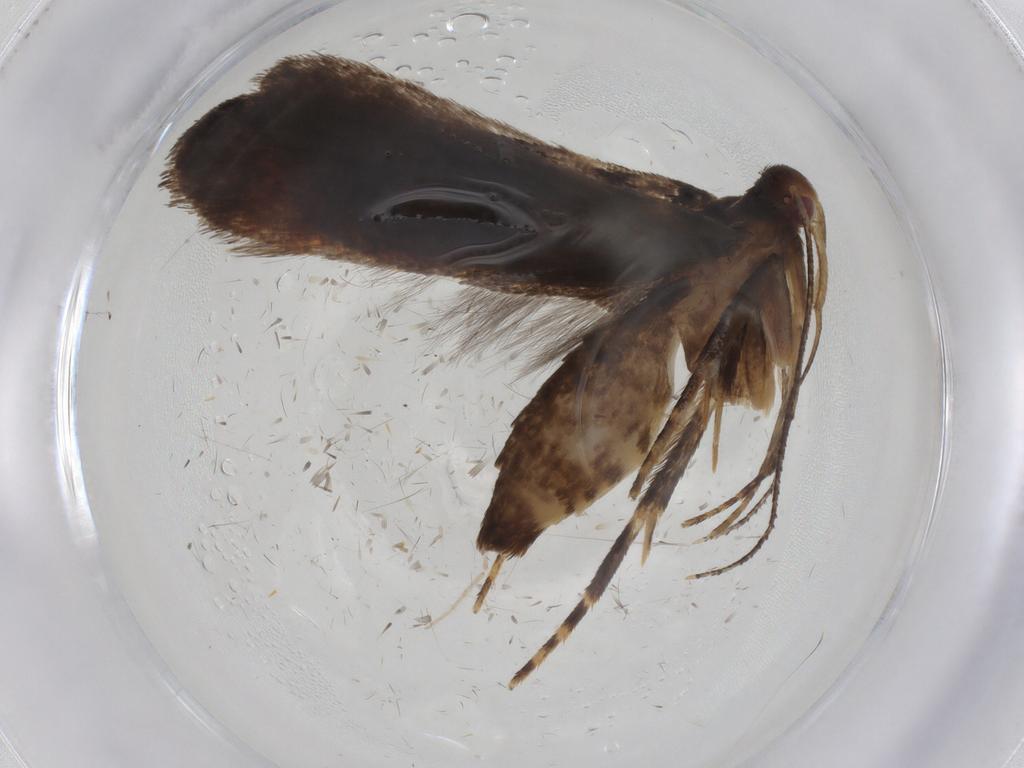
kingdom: Animalia
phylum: Arthropoda
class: Insecta
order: Lepidoptera
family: Gelechiidae
